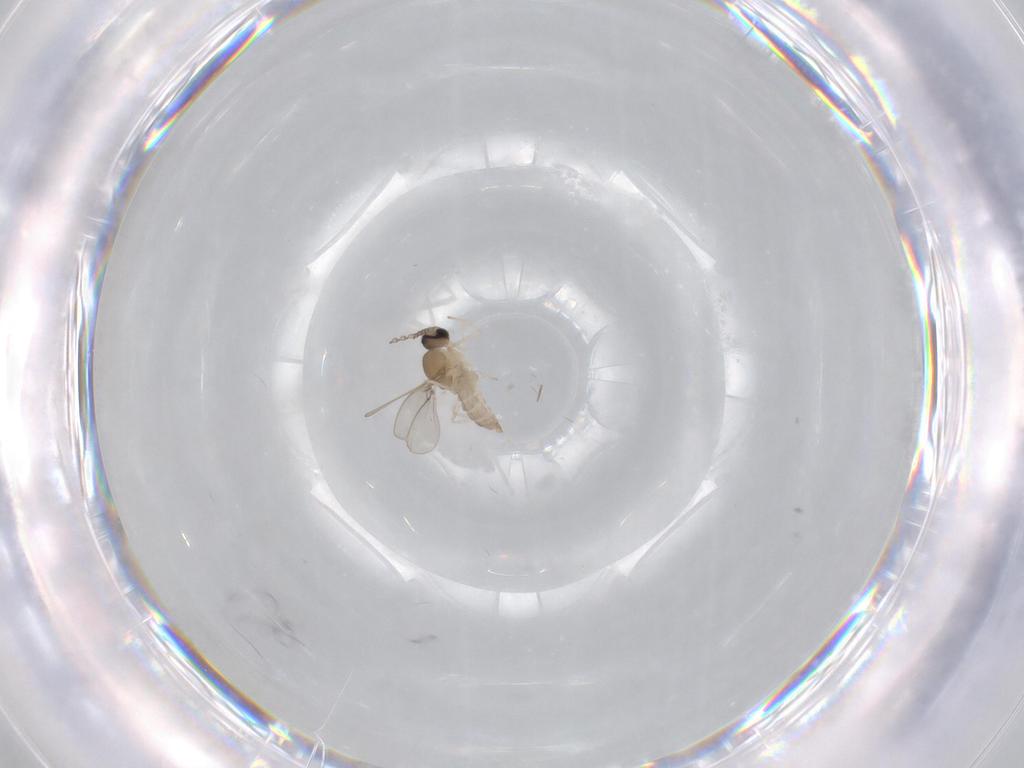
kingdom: Animalia
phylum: Arthropoda
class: Insecta
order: Diptera
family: Cecidomyiidae
